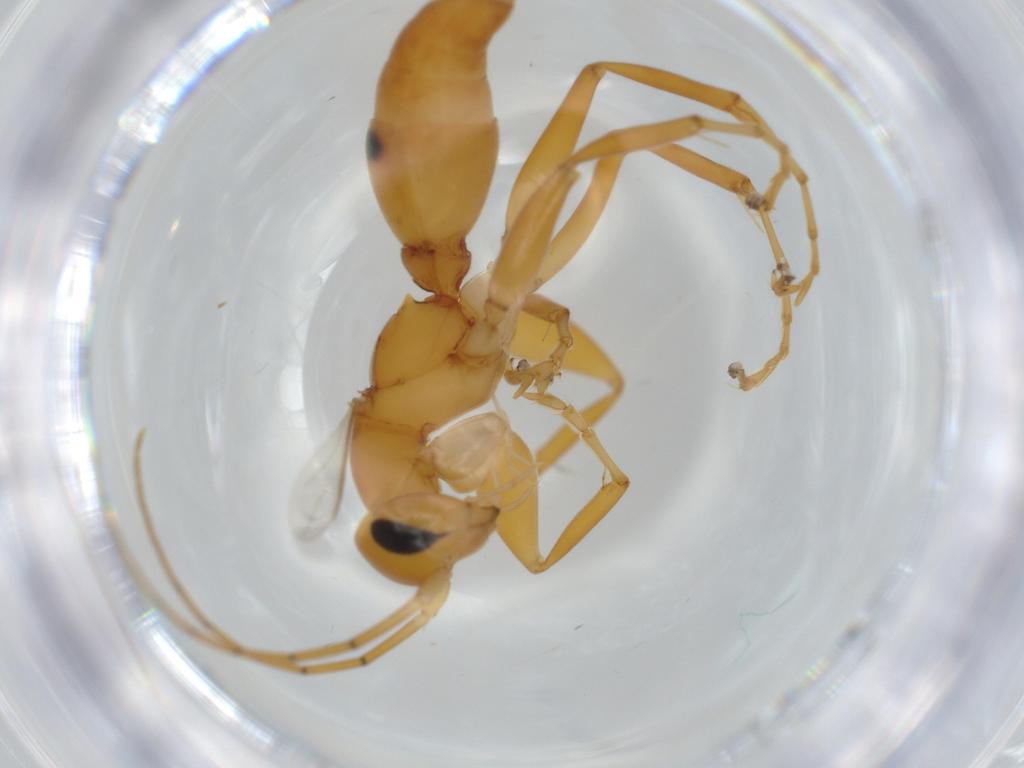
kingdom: Animalia
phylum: Arthropoda
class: Insecta
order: Hymenoptera
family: Rhopalosomatidae
